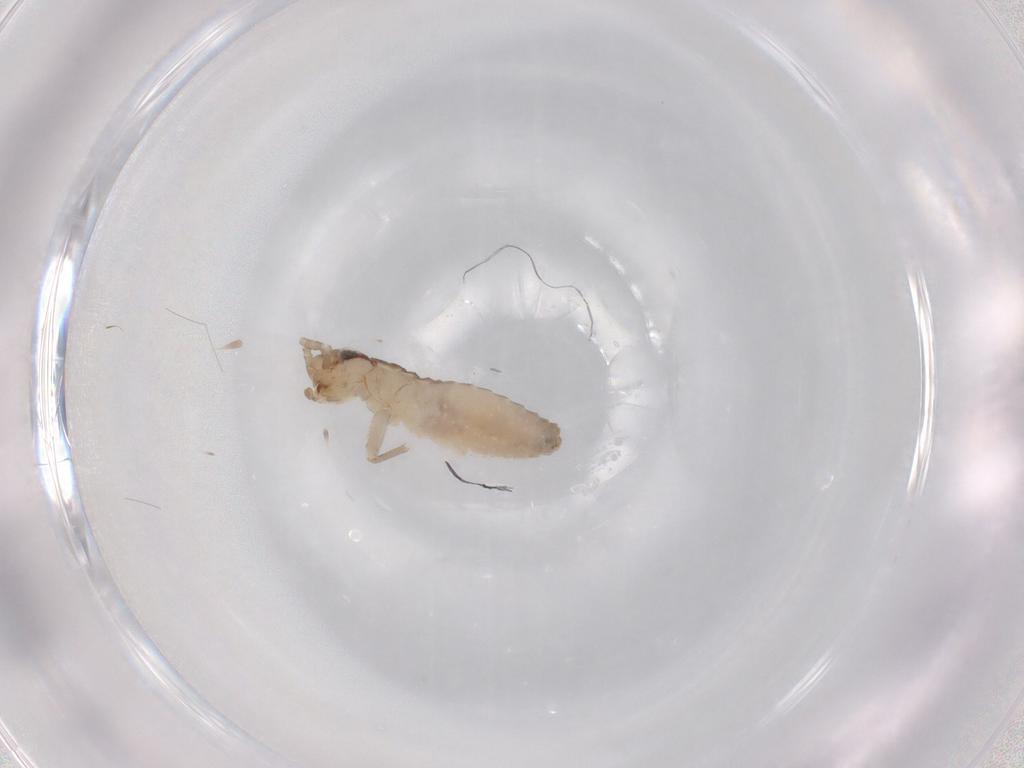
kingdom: Animalia
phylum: Arthropoda
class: Insecta
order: Orthoptera
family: Gryllidae
